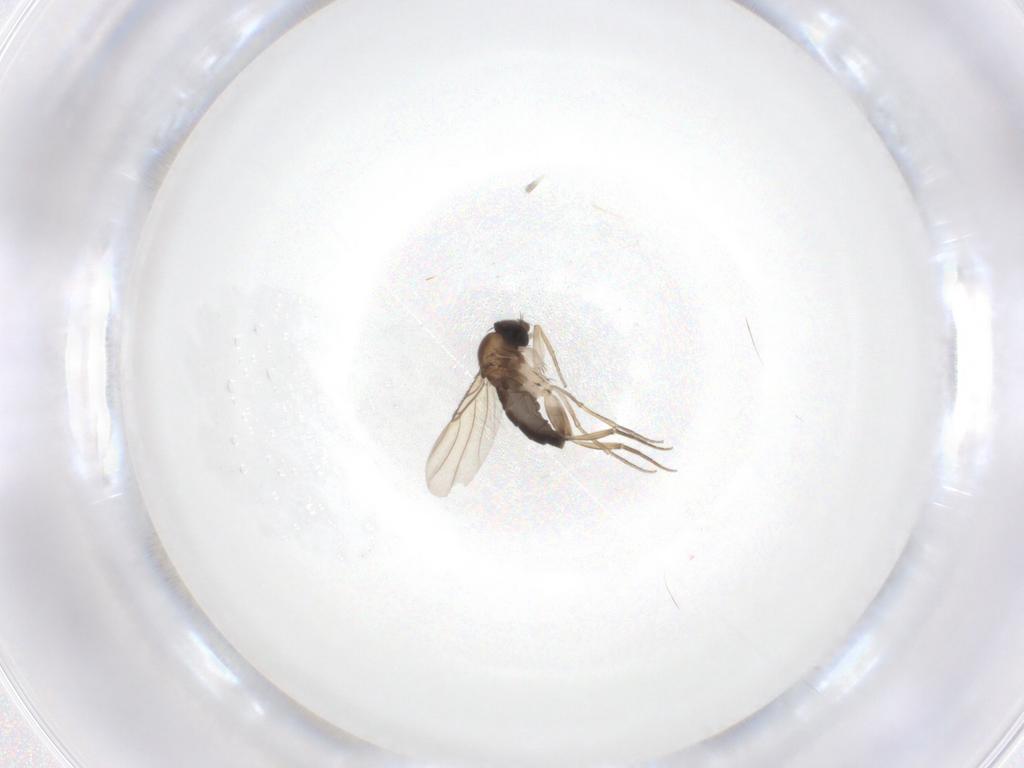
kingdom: Animalia
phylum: Arthropoda
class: Insecta
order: Diptera
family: Phoridae
